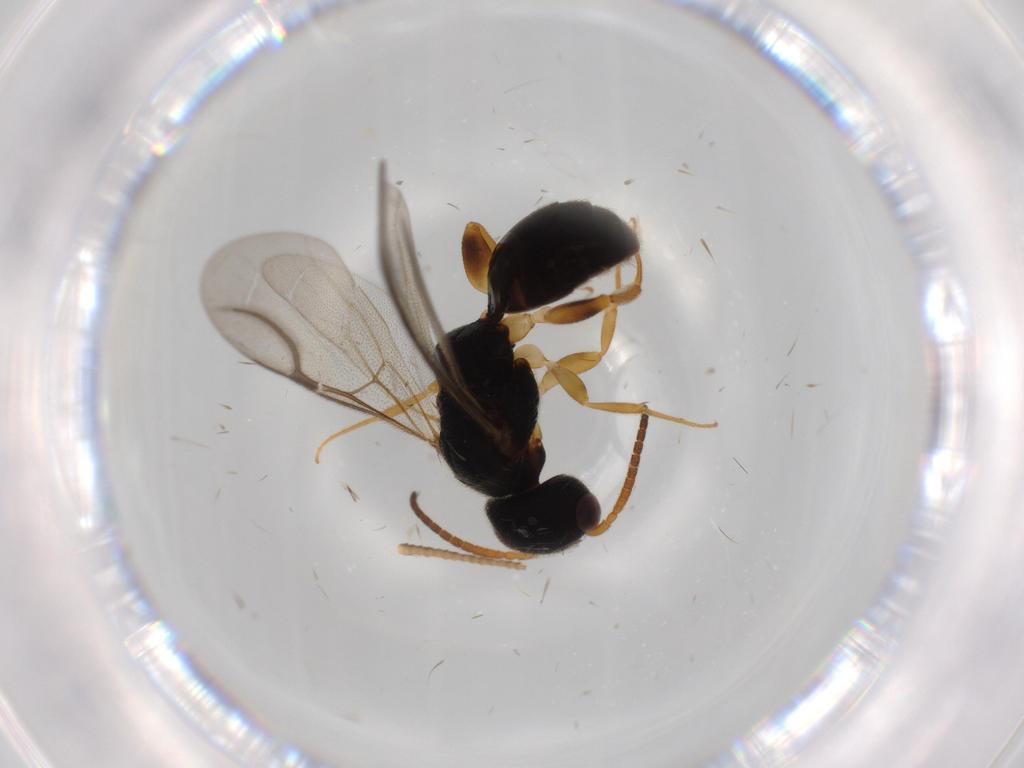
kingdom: Animalia
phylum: Arthropoda
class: Insecta
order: Hymenoptera
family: Bethylidae
